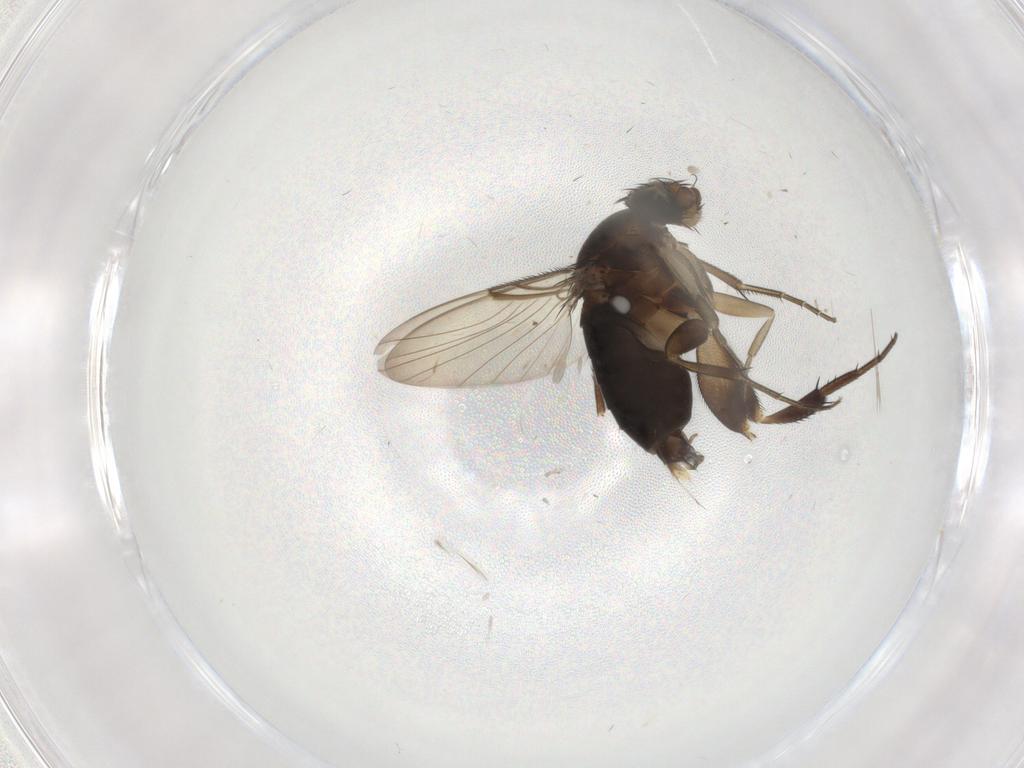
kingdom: Animalia
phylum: Arthropoda
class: Insecta
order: Diptera
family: Phoridae
